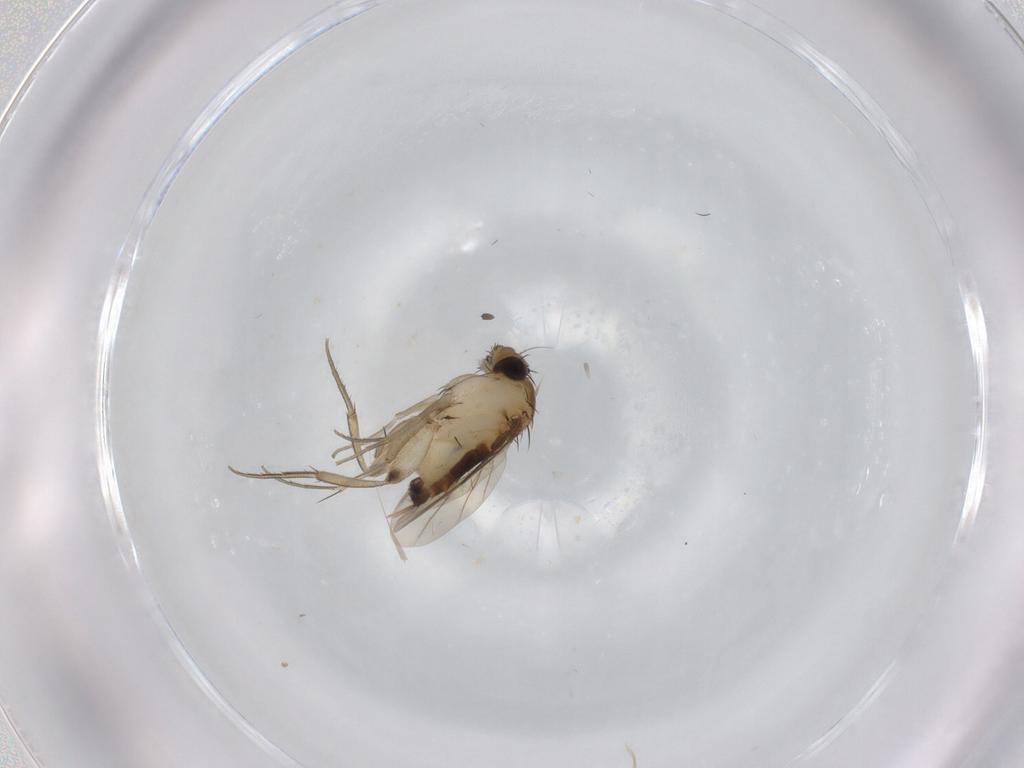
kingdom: Animalia
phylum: Arthropoda
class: Insecta
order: Diptera
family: Phoridae
